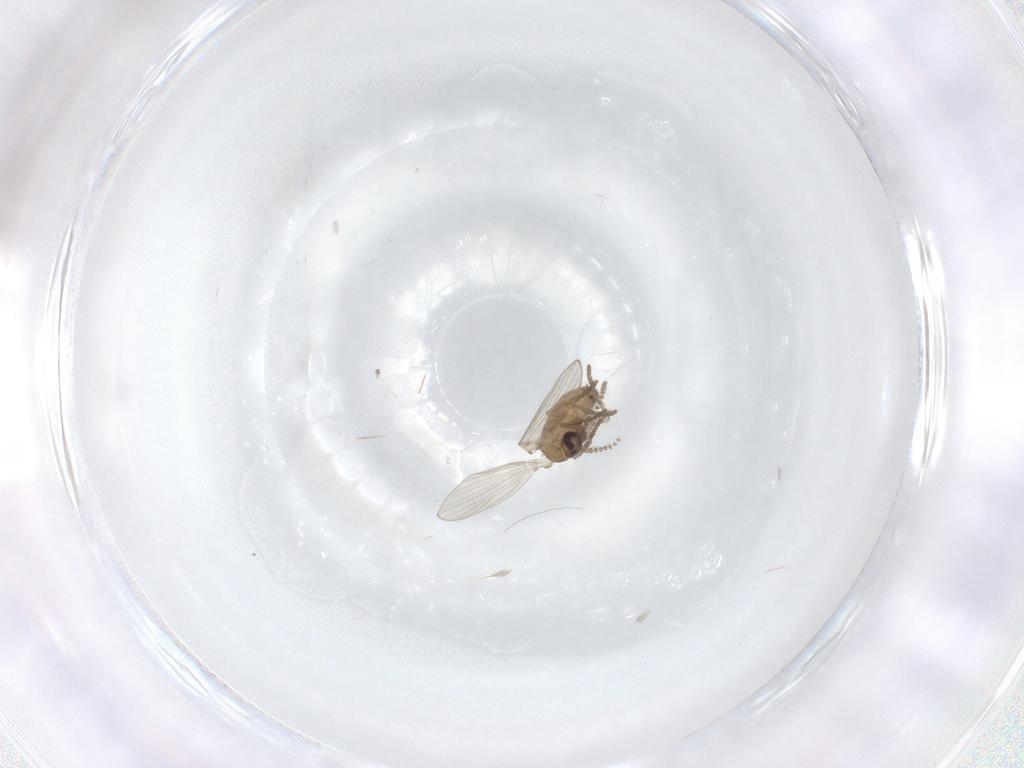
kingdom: Animalia
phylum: Arthropoda
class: Insecta
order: Diptera
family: Psychodidae
